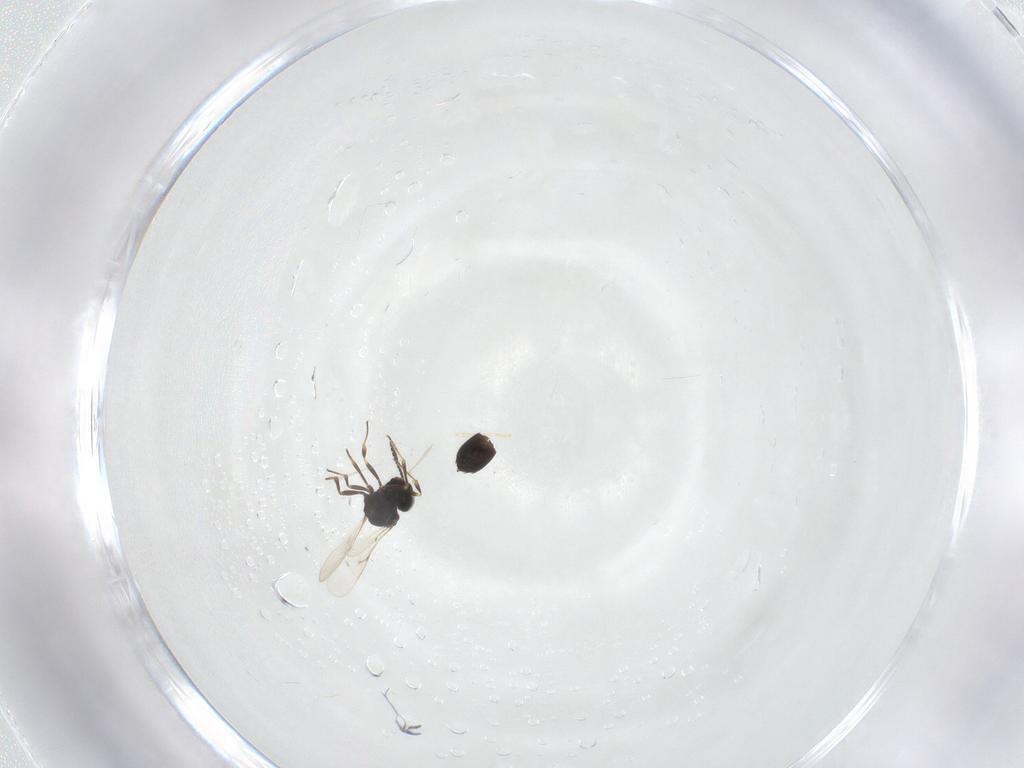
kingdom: Animalia
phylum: Arthropoda
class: Insecta
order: Hymenoptera
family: Scelionidae
